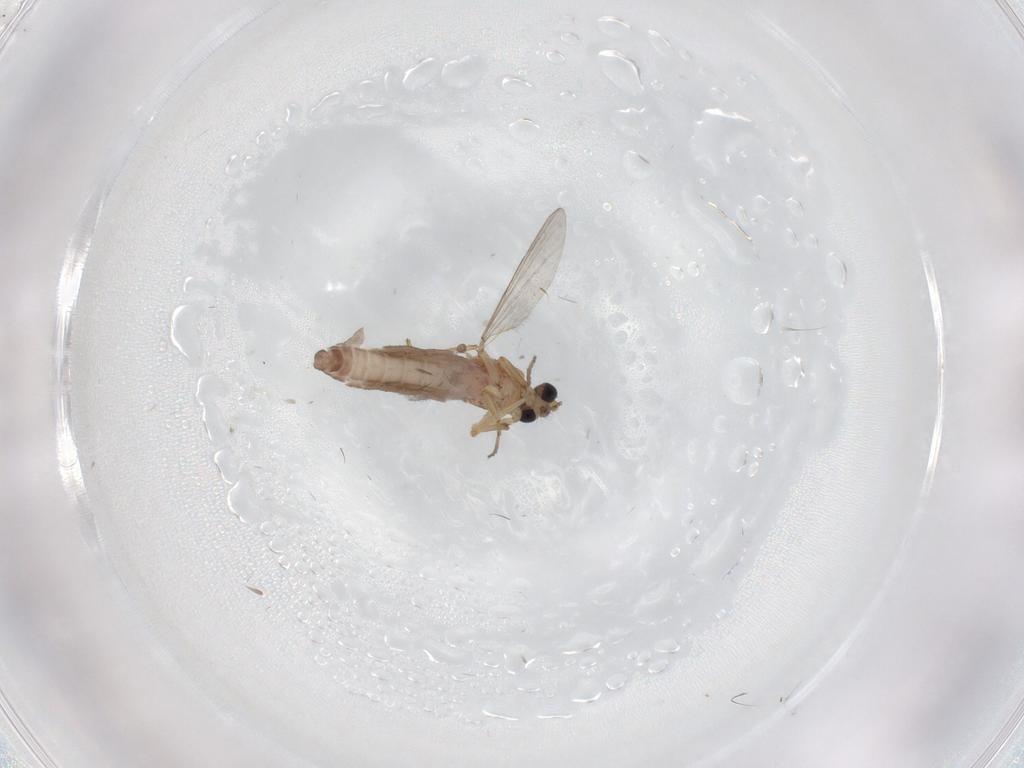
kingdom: Animalia
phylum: Arthropoda
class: Insecta
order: Diptera
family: Ceratopogonidae
